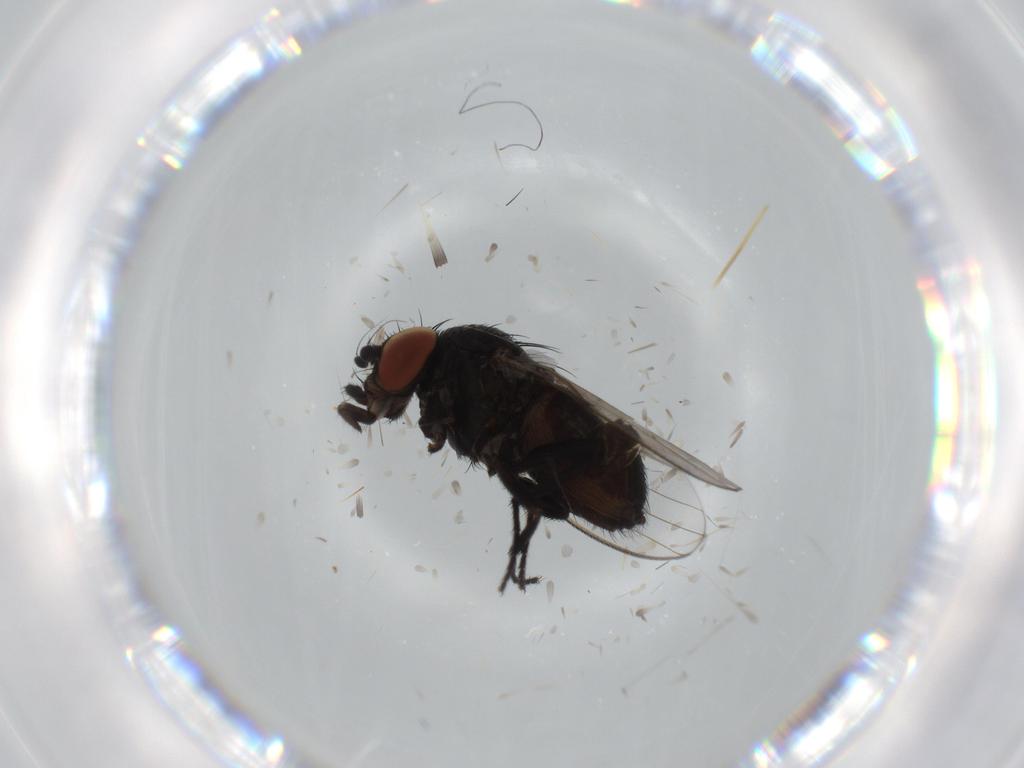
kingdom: Animalia
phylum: Arthropoda
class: Insecta
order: Diptera
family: Milichiidae
